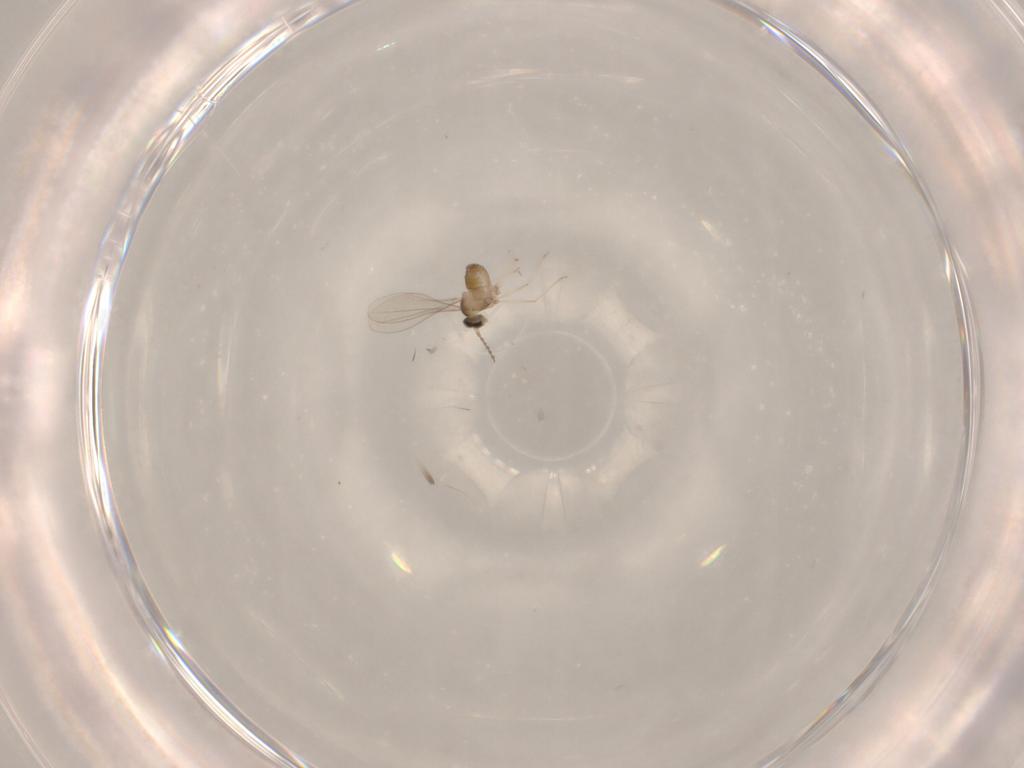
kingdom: Animalia
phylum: Arthropoda
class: Insecta
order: Diptera
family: Cecidomyiidae
